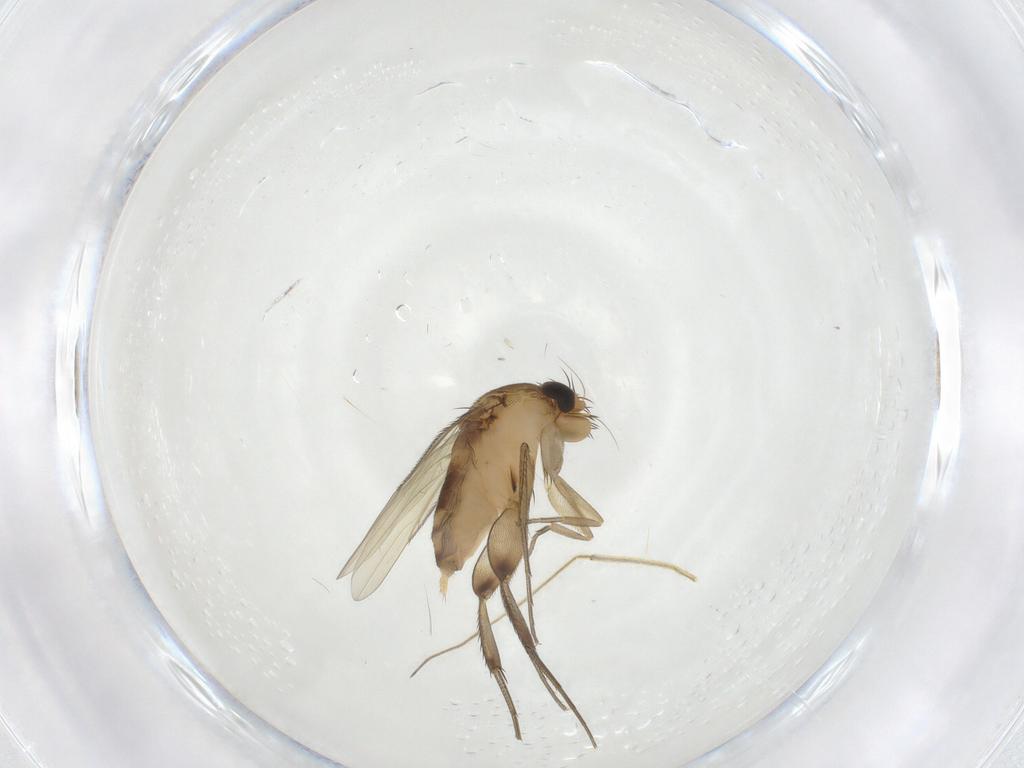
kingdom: Animalia
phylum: Arthropoda
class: Insecta
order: Diptera
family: Phoridae
